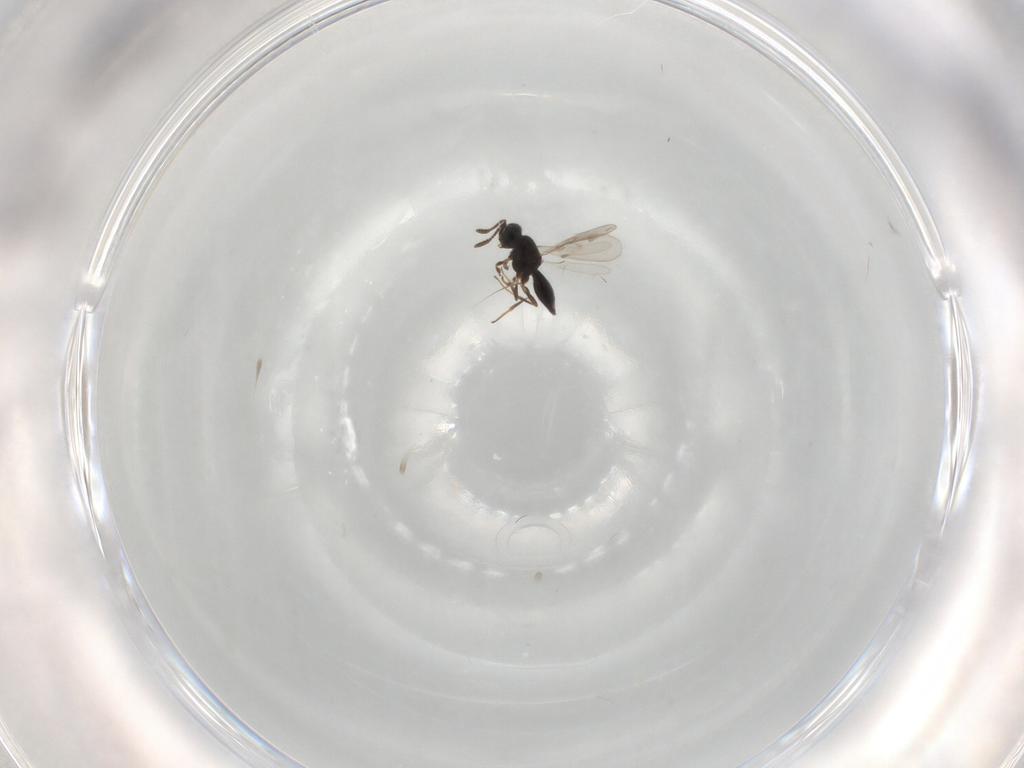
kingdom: Animalia
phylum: Arthropoda
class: Insecta
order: Hymenoptera
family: Scelionidae
